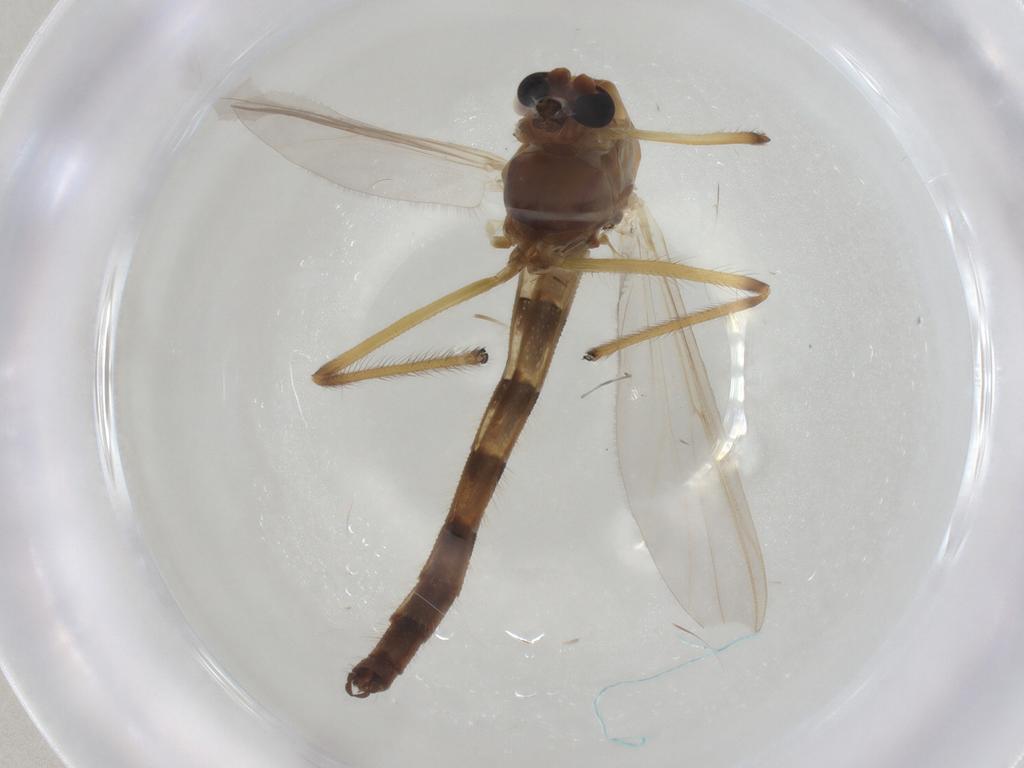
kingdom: Animalia
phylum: Arthropoda
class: Insecta
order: Diptera
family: Chironomidae
